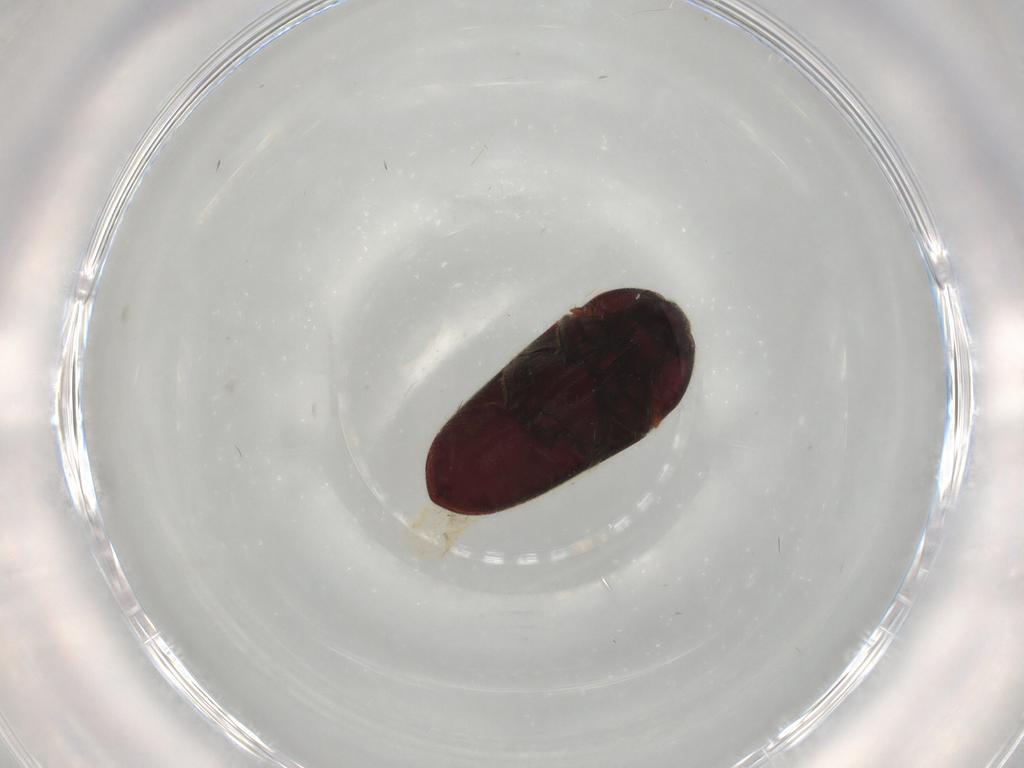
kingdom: Animalia
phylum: Arthropoda
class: Insecta
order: Coleoptera
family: Throscidae
